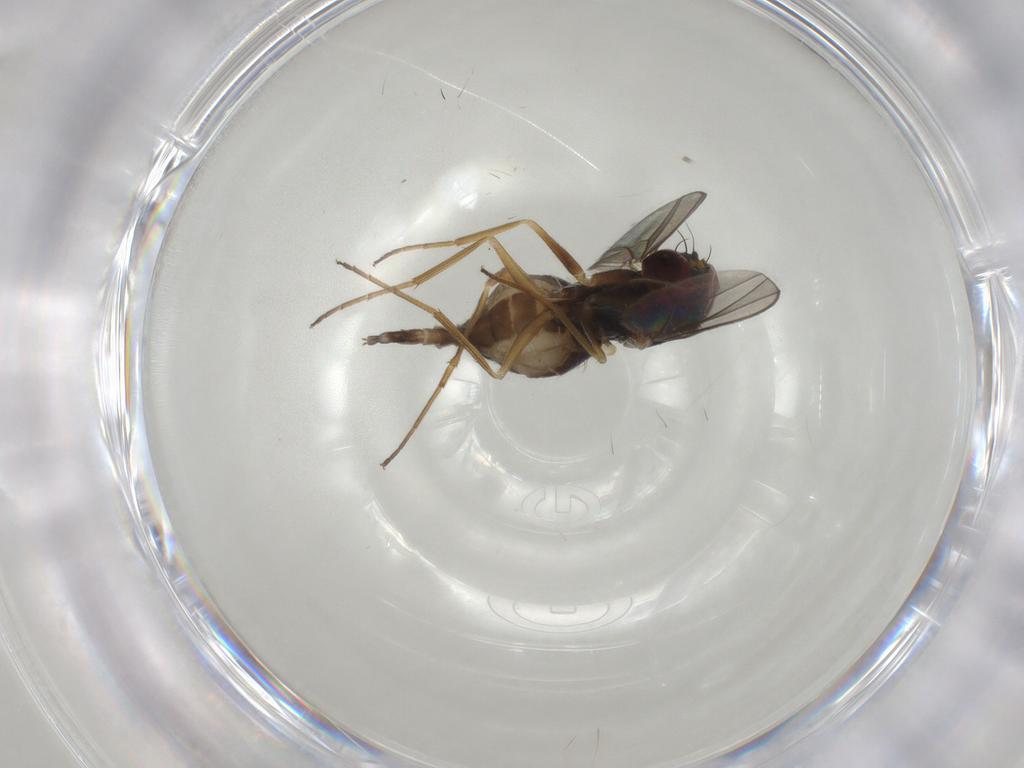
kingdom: Animalia
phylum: Arthropoda
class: Insecta
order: Diptera
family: Dolichopodidae
